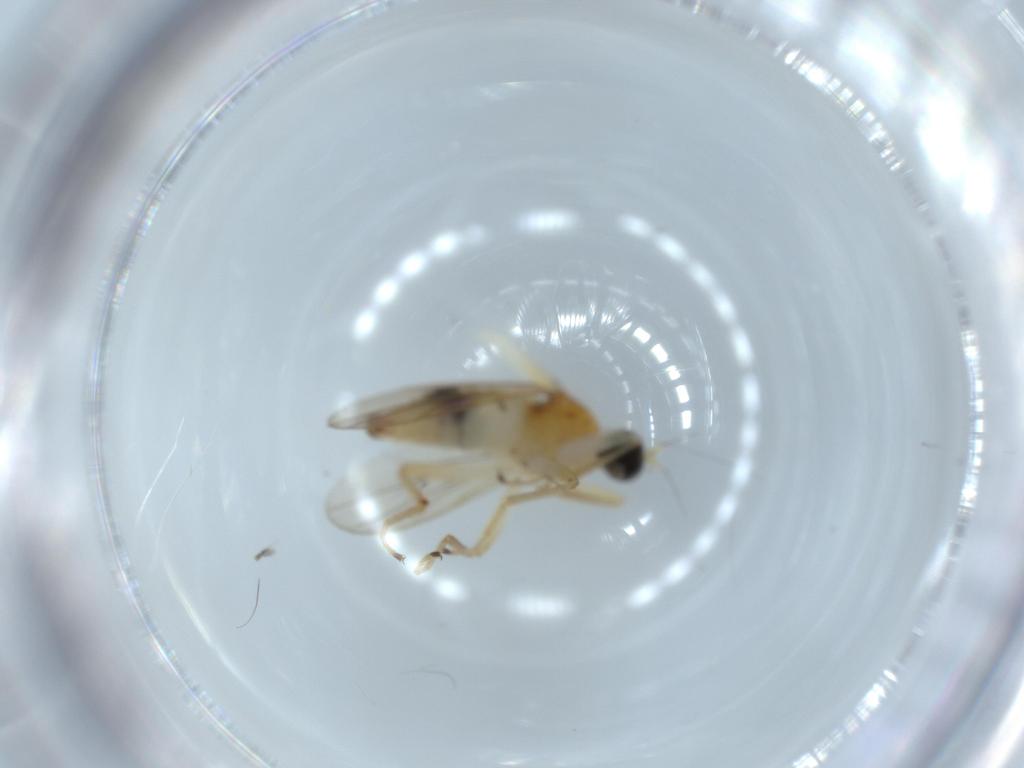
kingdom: Animalia
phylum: Arthropoda
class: Insecta
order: Diptera
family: Hybotidae
